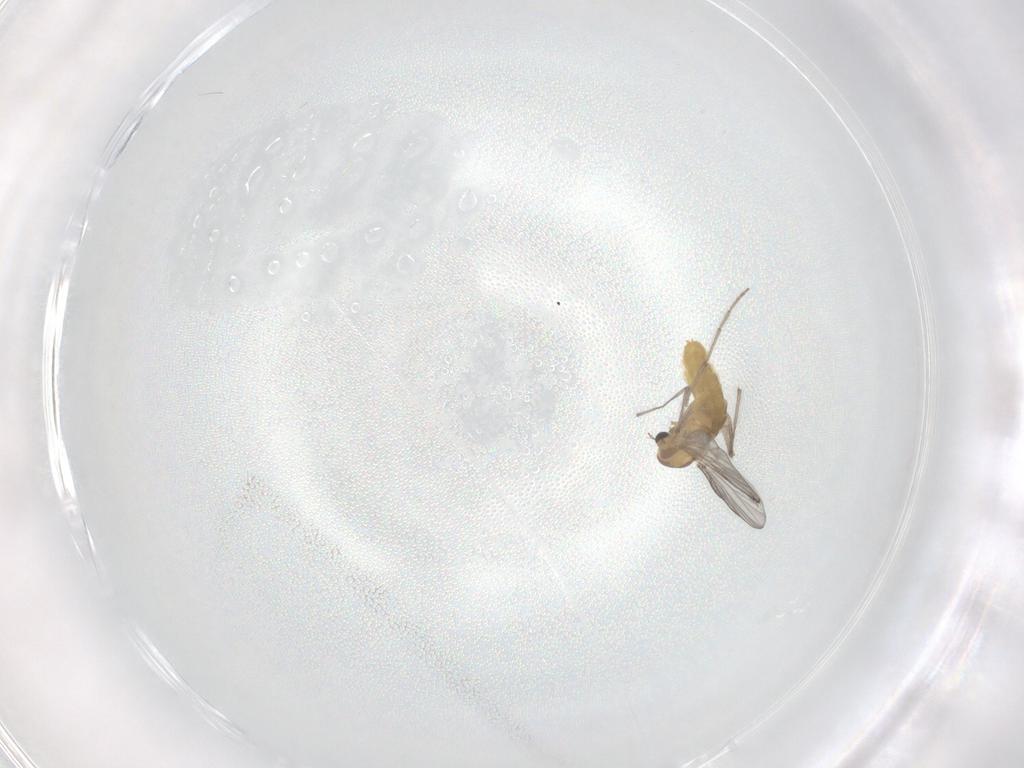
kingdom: Animalia
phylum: Arthropoda
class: Insecta
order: Diptera
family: Chironomidae
